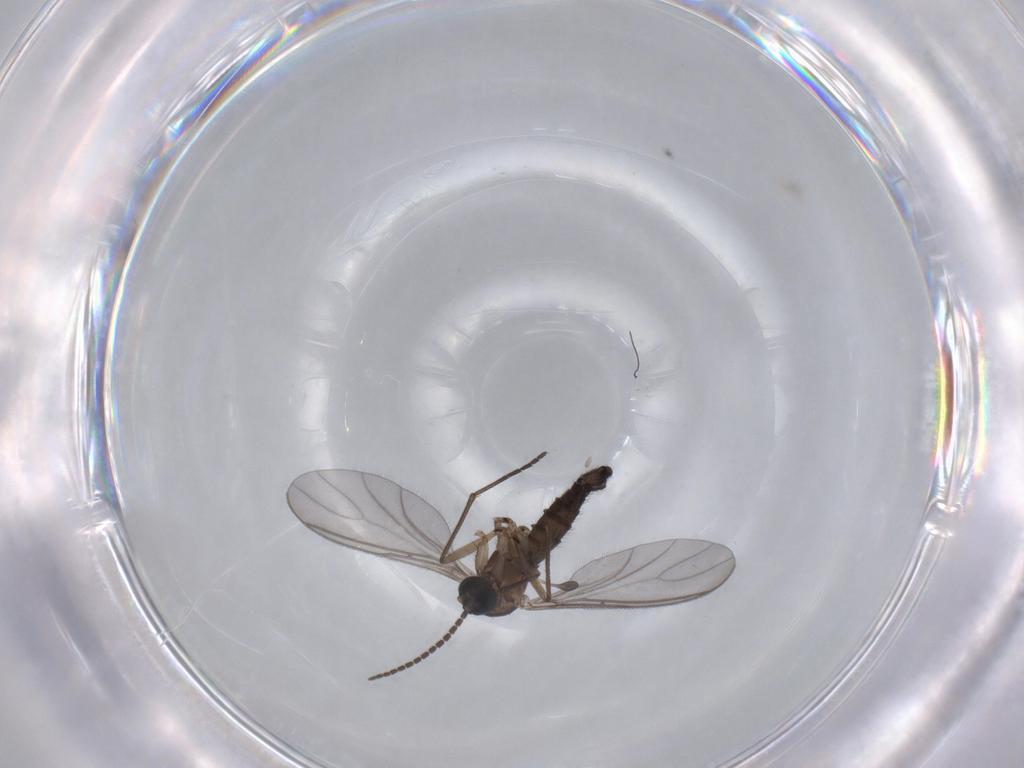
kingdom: Animalia
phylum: Arthropoda
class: Insecta
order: Diptera
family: Sciaridae
